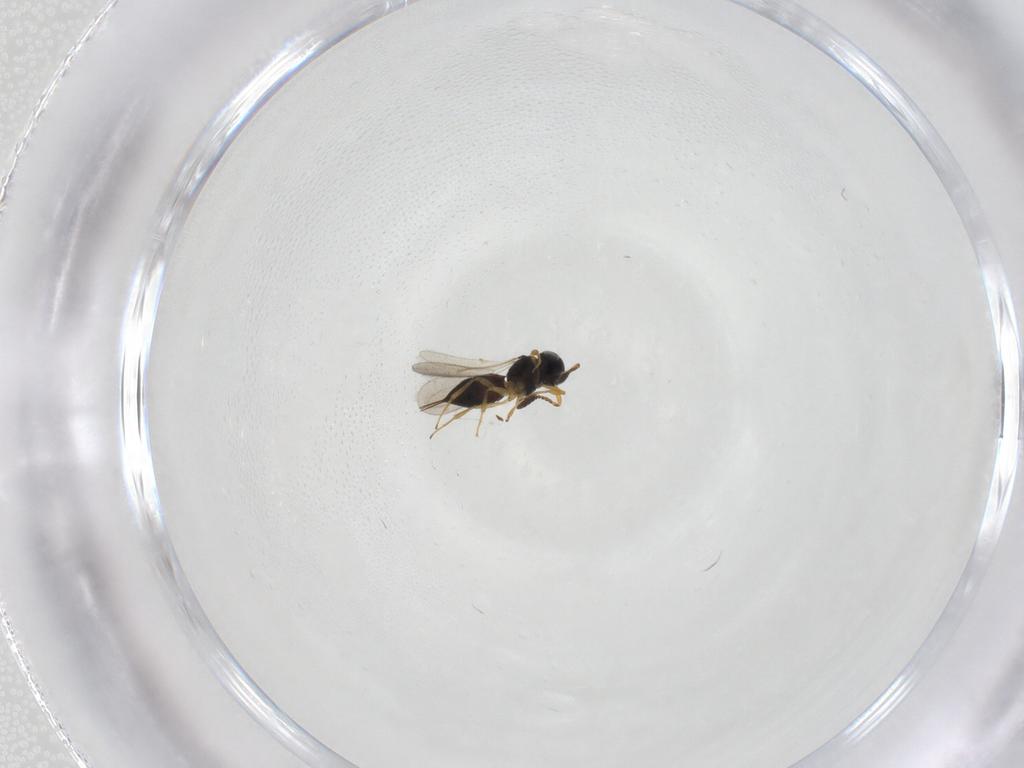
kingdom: Animalia
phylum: Arthropoda
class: Insecta
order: Hymenoptera
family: Scelionidae
